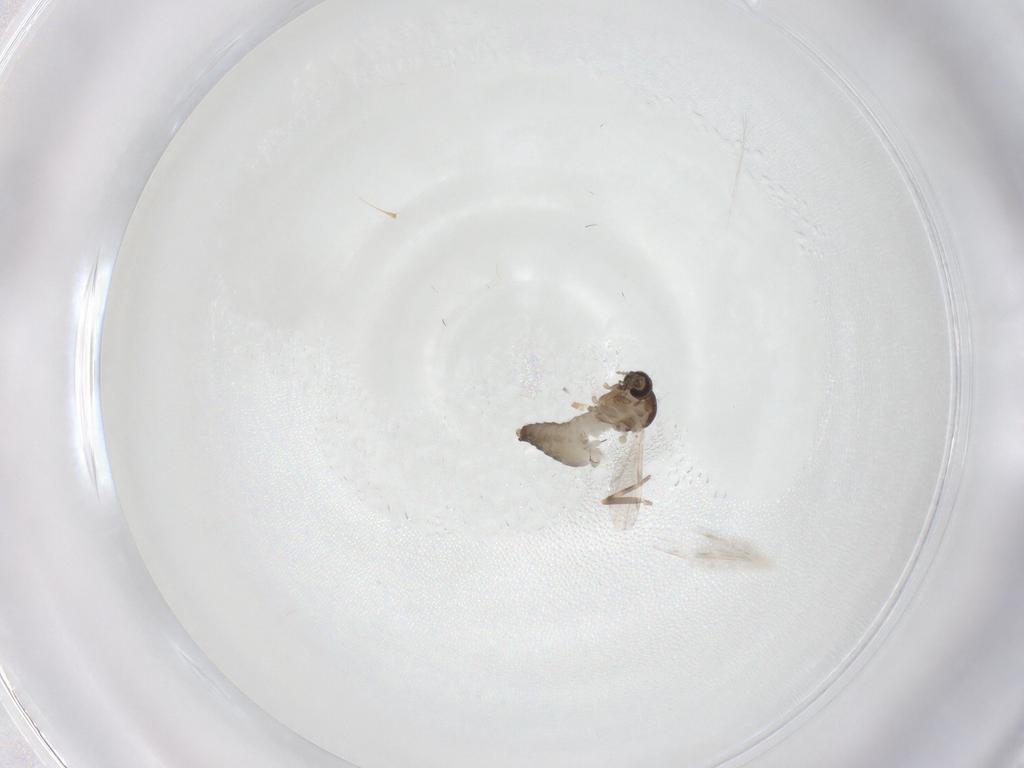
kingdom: Animalia
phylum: Arthropoda
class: Insecta
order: Diptera
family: Ceratopogonidae
